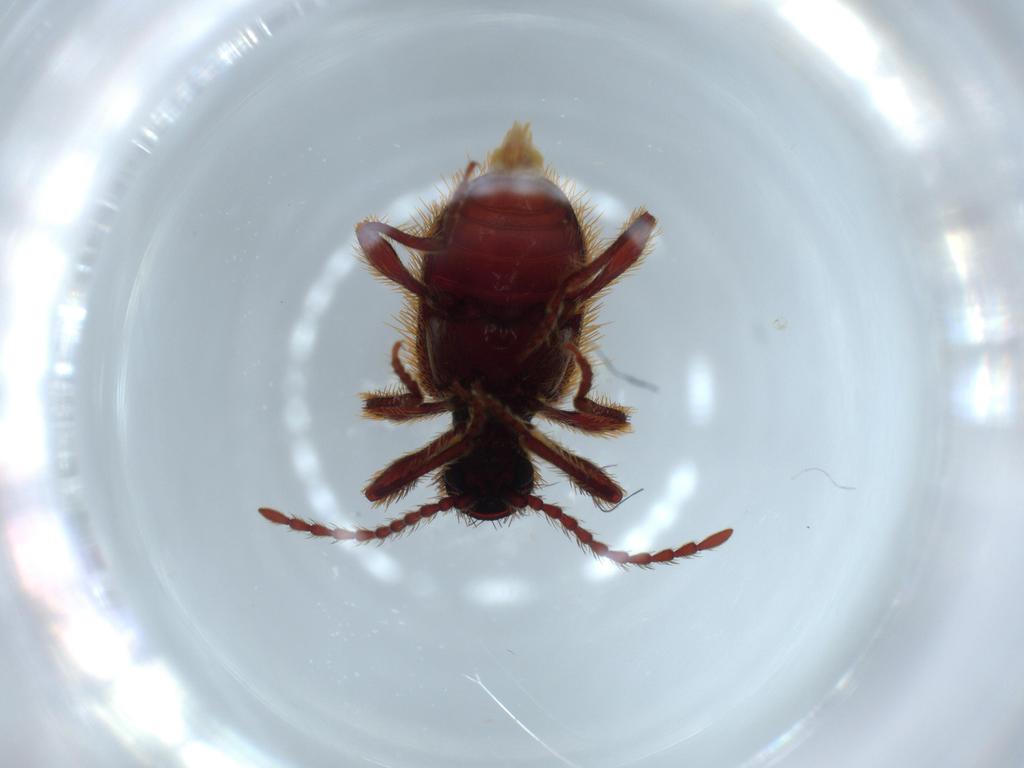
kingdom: Animalia
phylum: Arthropoda
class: Insecta
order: Coleoptera
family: Ptinidae
